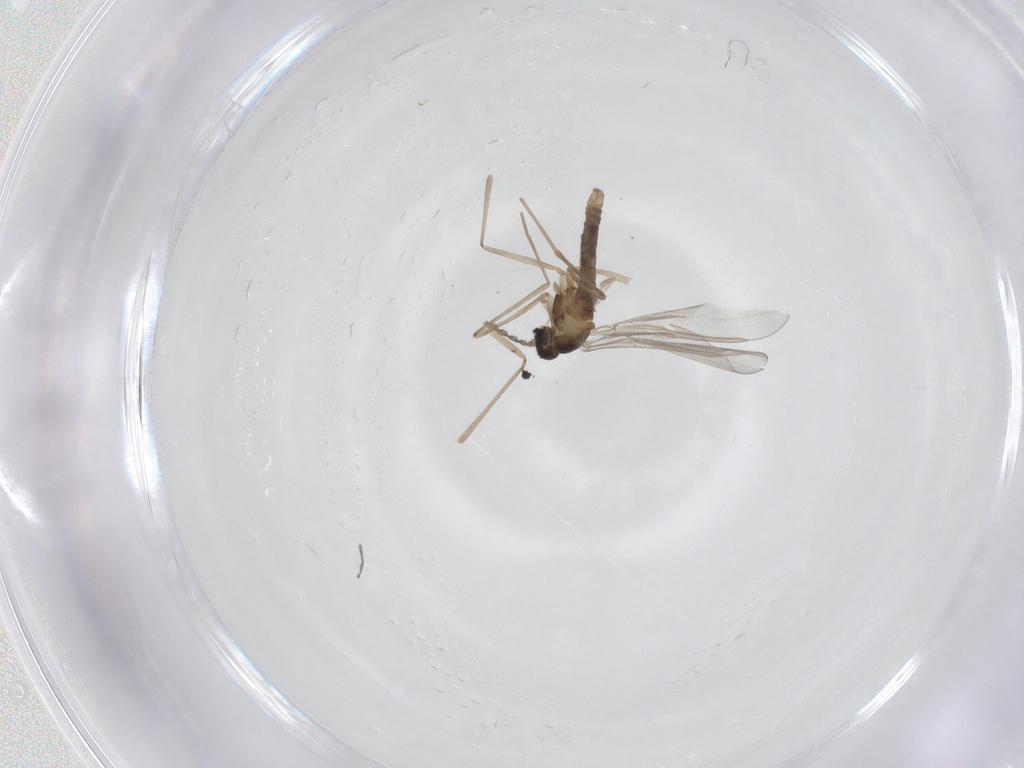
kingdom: Animalia
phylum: Arthropoda
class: Insecta
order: Diptera
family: Cecidomyiidae
